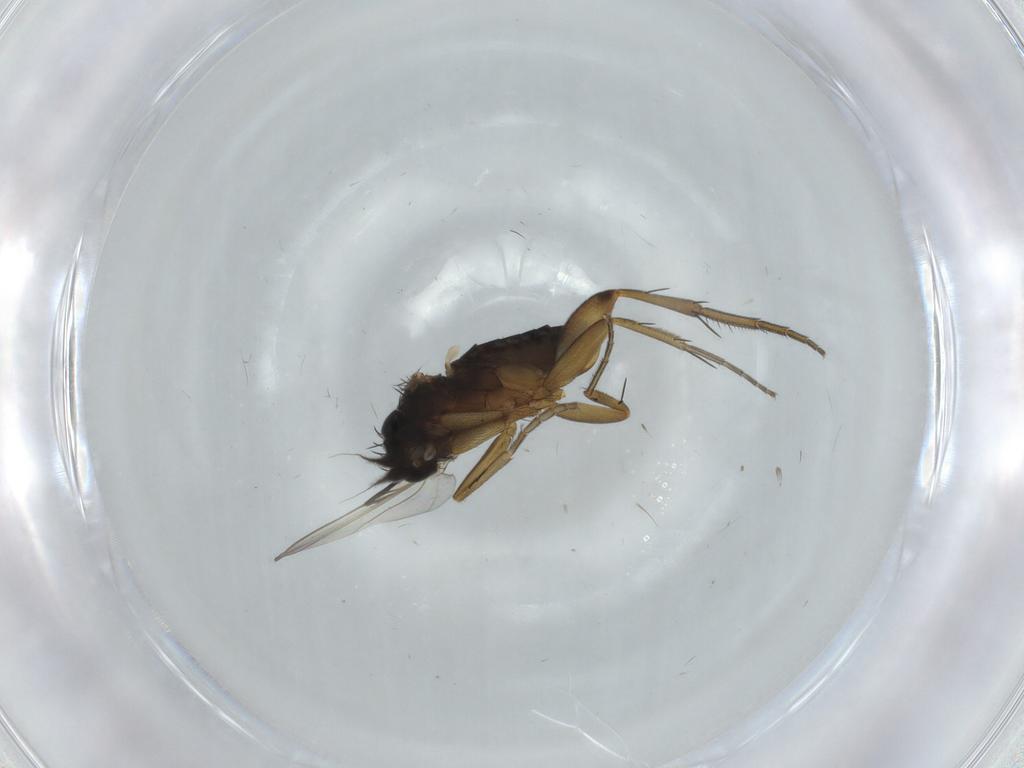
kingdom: Animalia
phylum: Arthropoda
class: Insecta
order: Diptera
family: Phoridae
